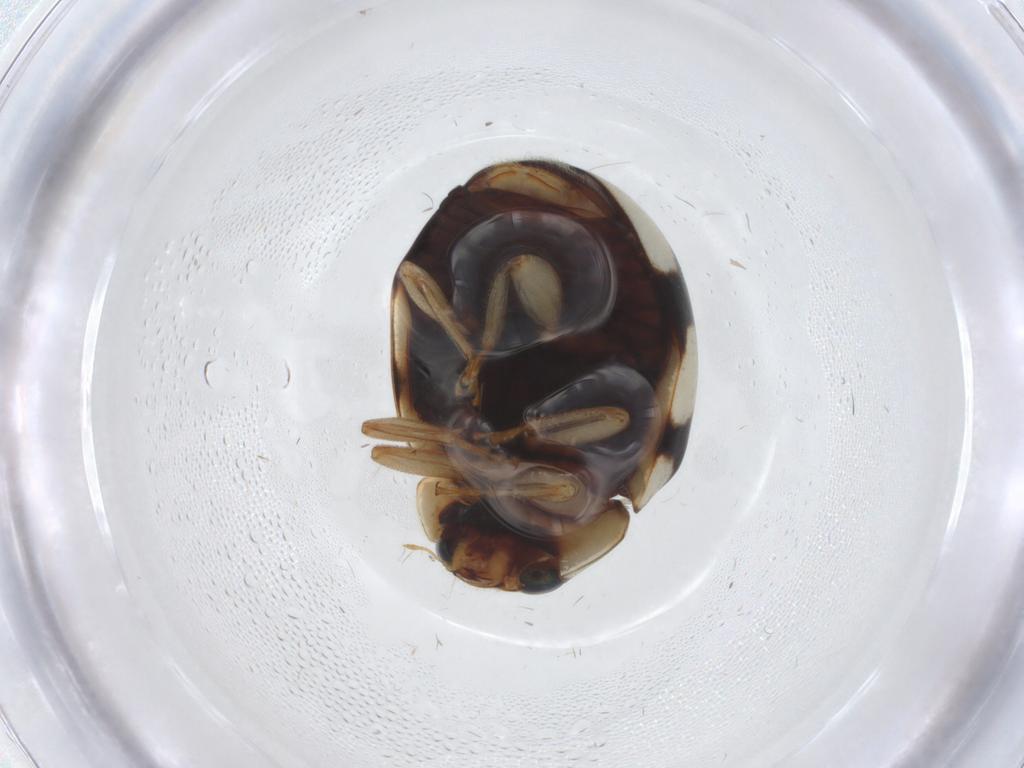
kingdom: Animalia
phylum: Arthropoda
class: Insecta
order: Coleoptera
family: Coccinellidae
